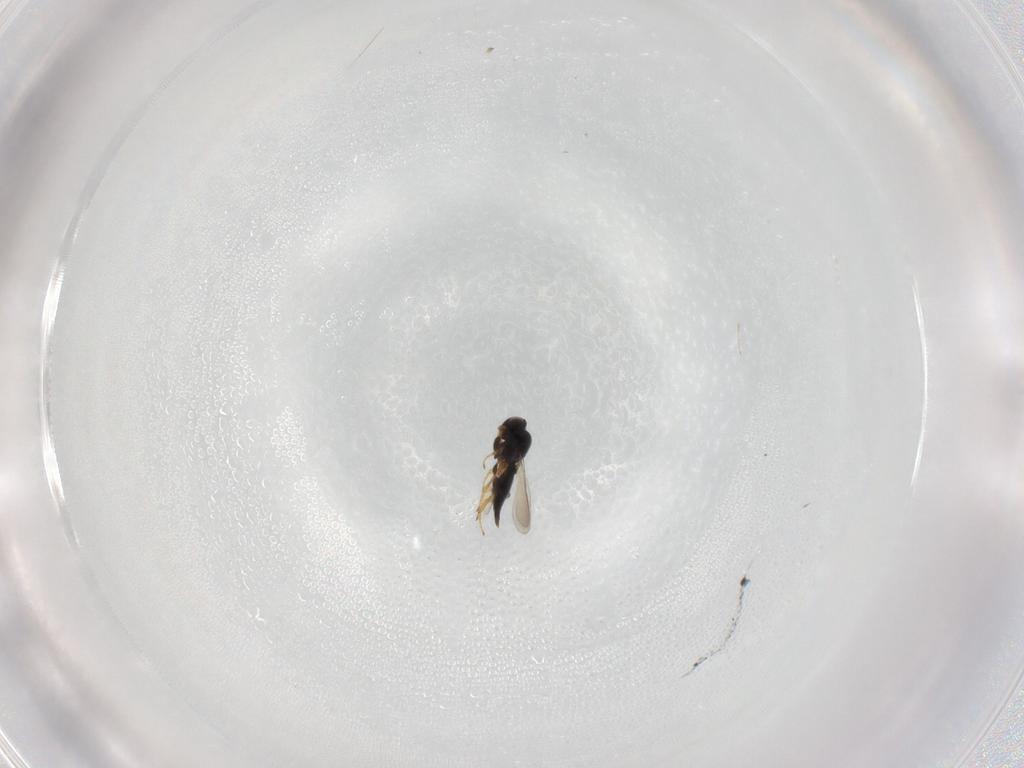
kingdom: Animalia
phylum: Arthropoda
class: Insecta
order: Hymenoptera
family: Platygastridae
